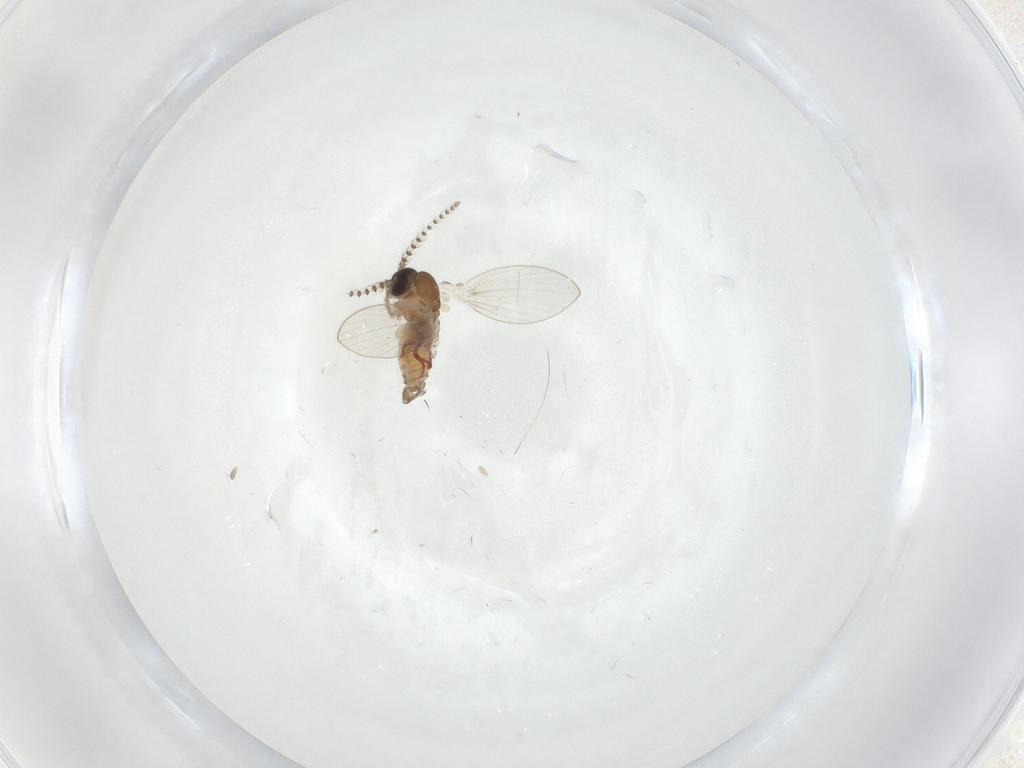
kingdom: Animalia
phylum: Arthropoda
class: Insecta
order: Diptera
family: Psychodidae
